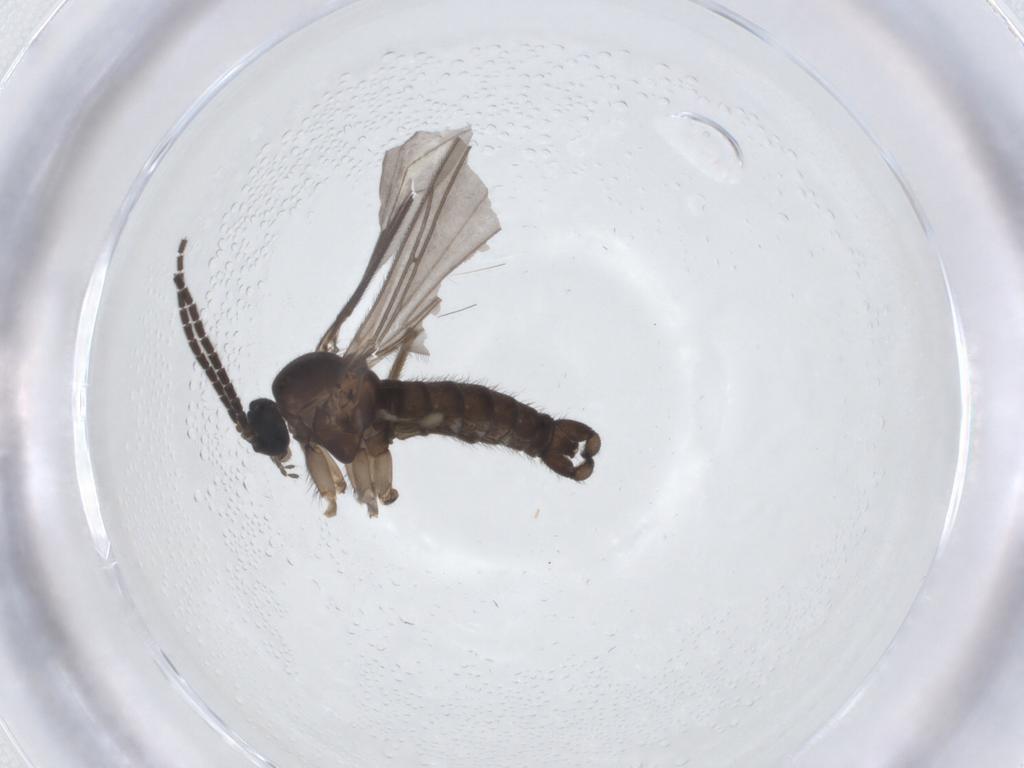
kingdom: Animalia
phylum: Arthropoda
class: Insecta
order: Diptera
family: Sciaridae
